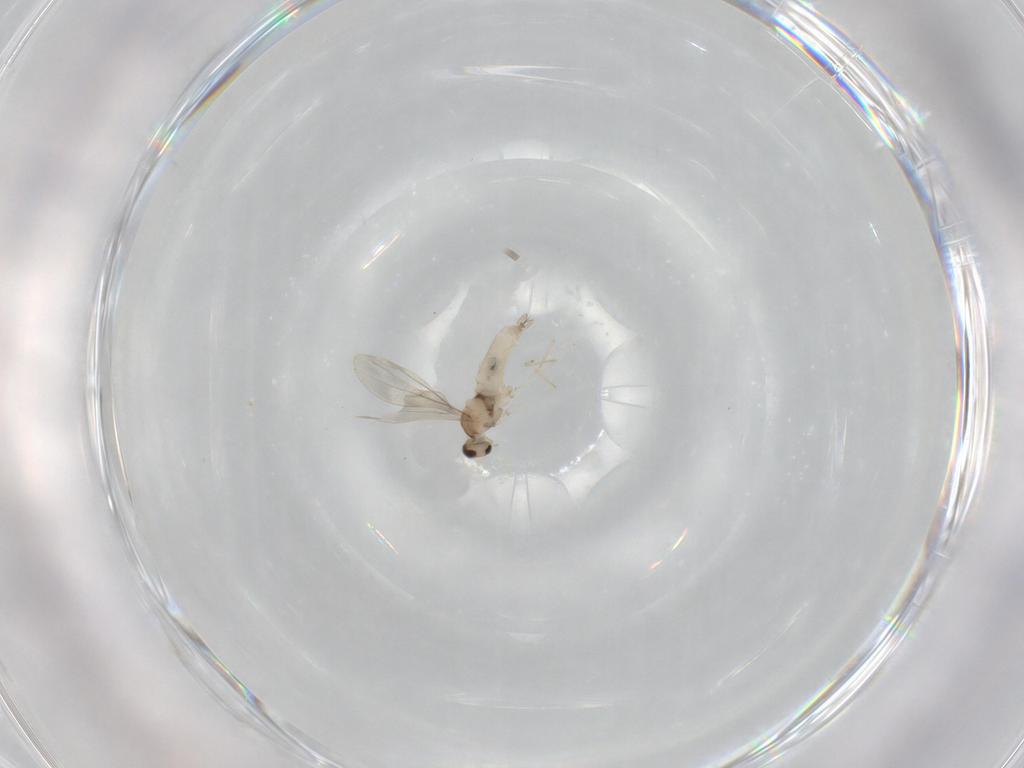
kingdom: Animalia
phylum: Arthropoda
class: Insecta
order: Diptera
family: Cecidomyiidae
